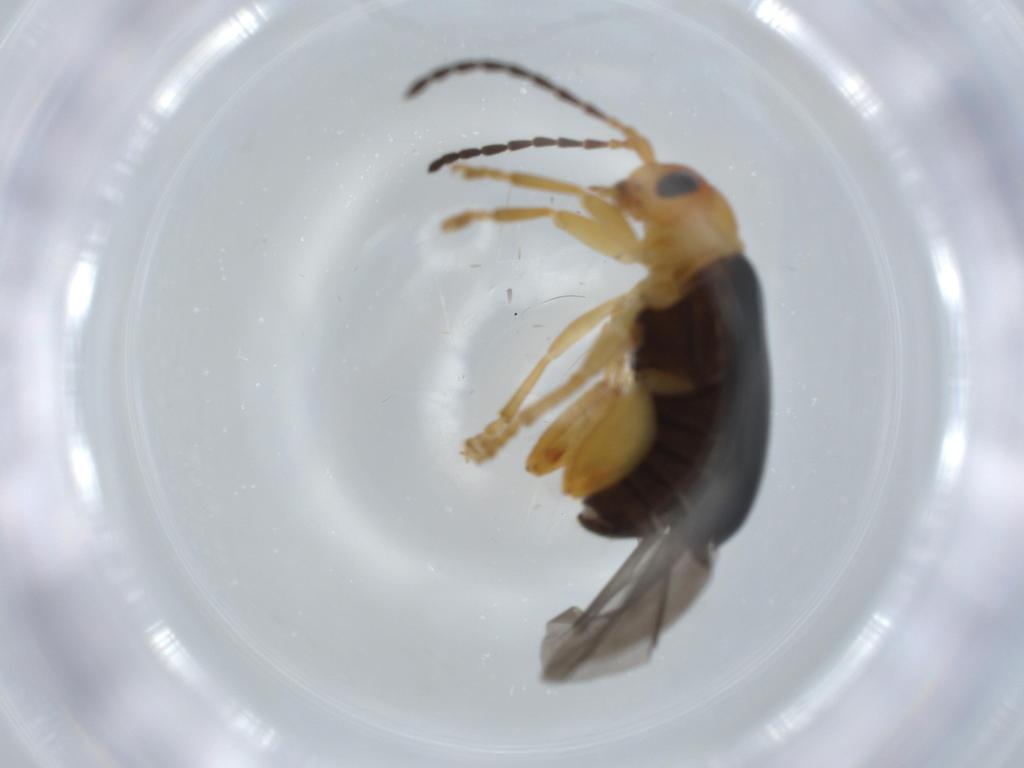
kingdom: Animalia
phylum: Arthropoda
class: Insecta
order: Coleoptera
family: Chrysomelidae
